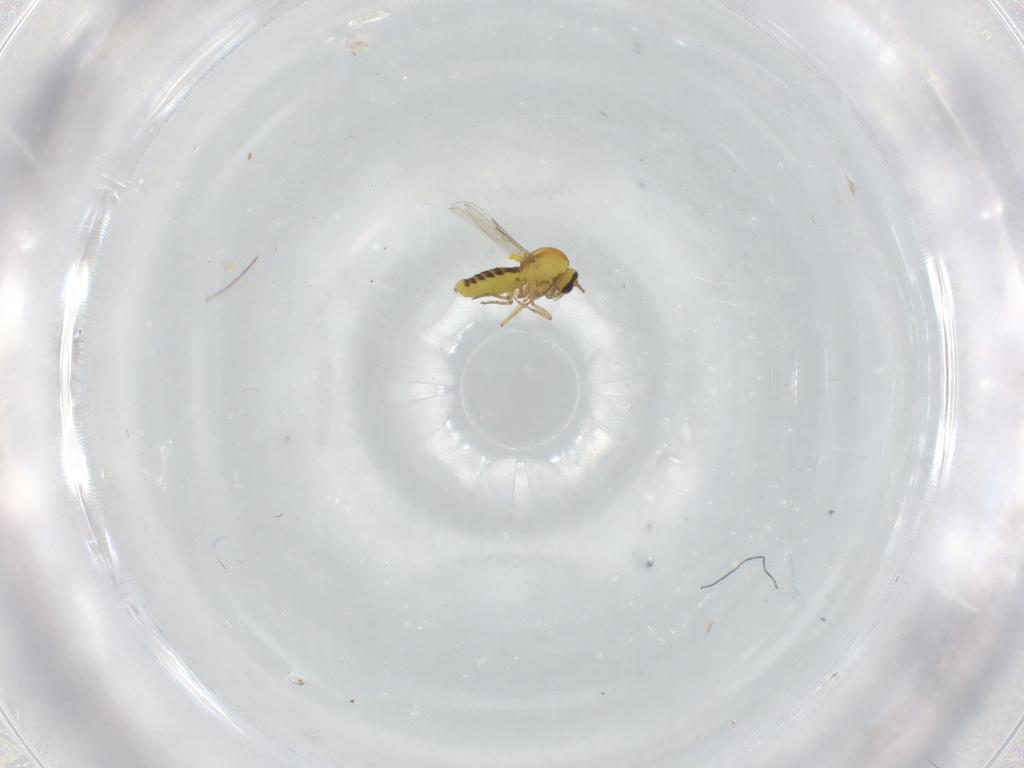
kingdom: Animalia
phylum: Arthropoda
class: Insecta
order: Diptera
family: Ceratopogonidae
